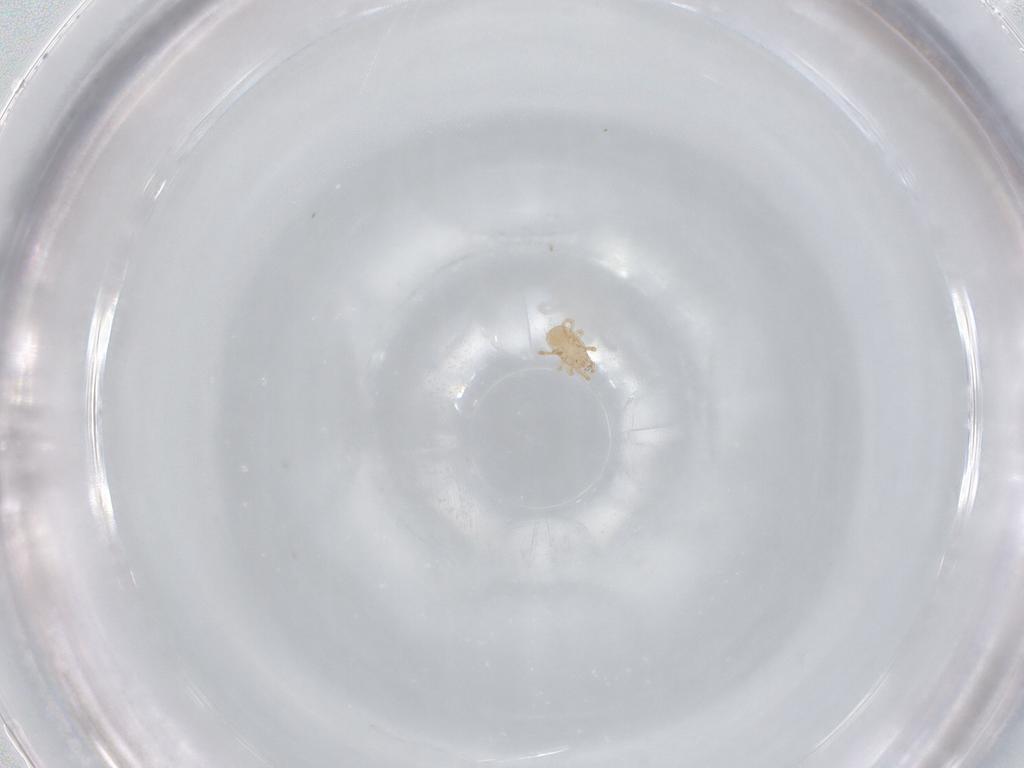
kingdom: Animalia
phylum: Arthropoda
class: Arachnida
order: Mesostigmata
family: Blattisociidae
